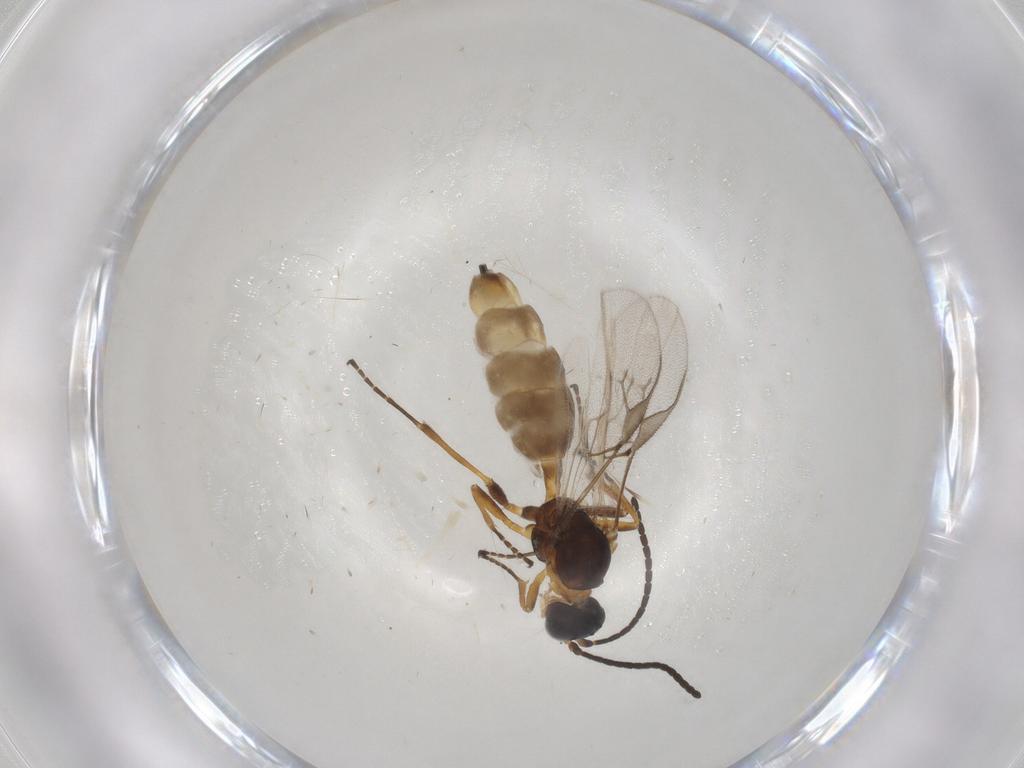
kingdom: Animalia
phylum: Arthropoda
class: Insecta
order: Hymenoptera
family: Braconidae
